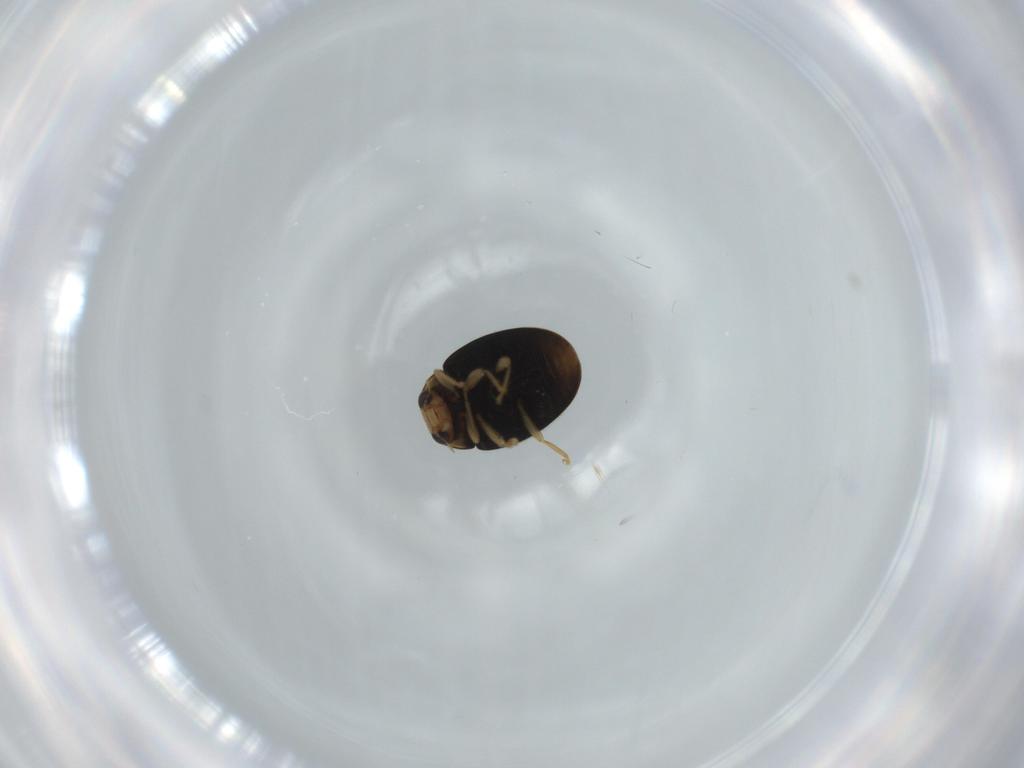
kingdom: Animalia
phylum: Arthropoda
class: Insecta
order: Coleoptera
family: Coccinellidae
